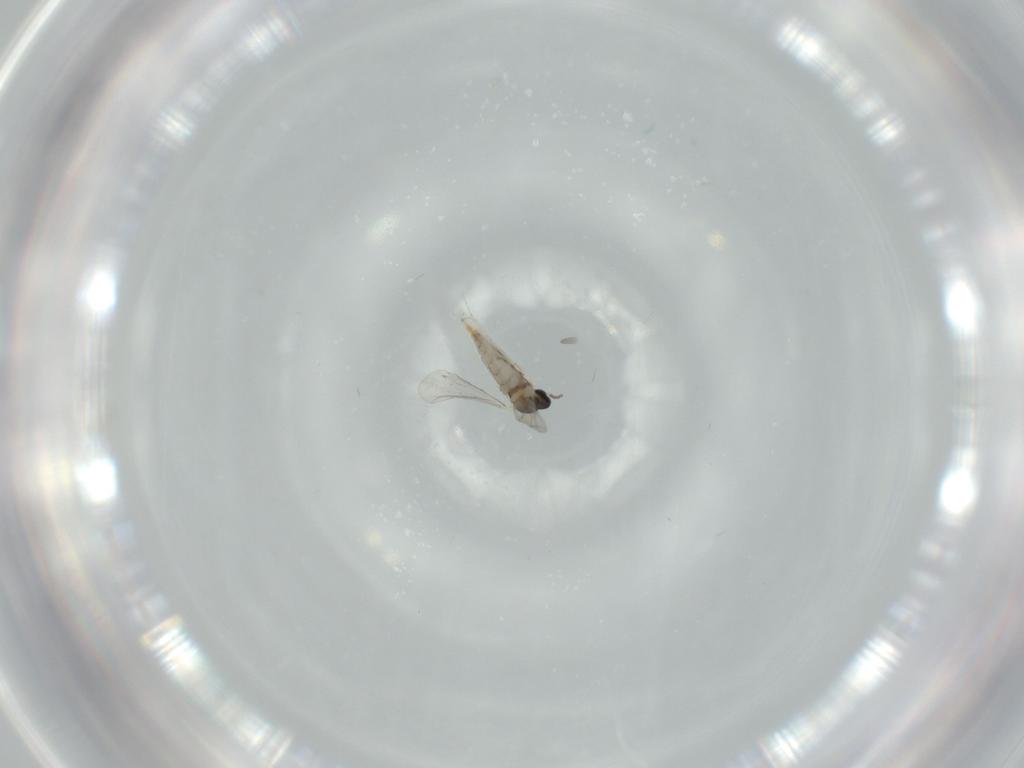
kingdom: Animalia
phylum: Arthropoda
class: Insecta
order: Diptera
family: Cecidomyiidae
